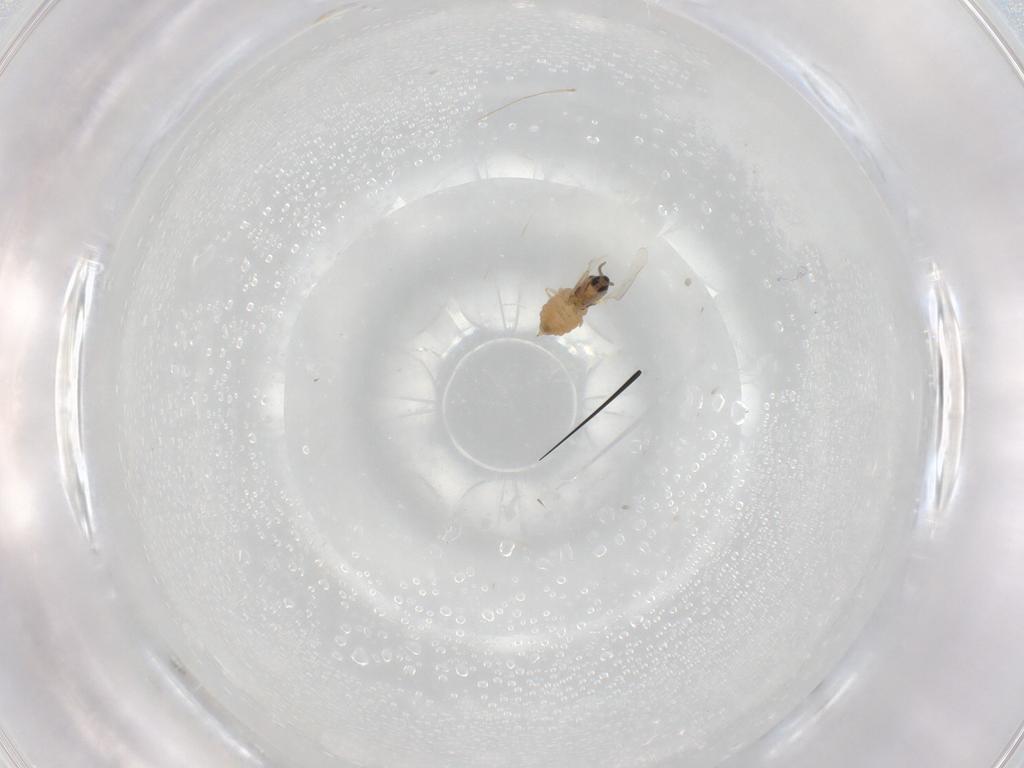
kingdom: Animalia
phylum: Arthropoda
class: Insecta
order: Diptera
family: Cecidomyiidae
